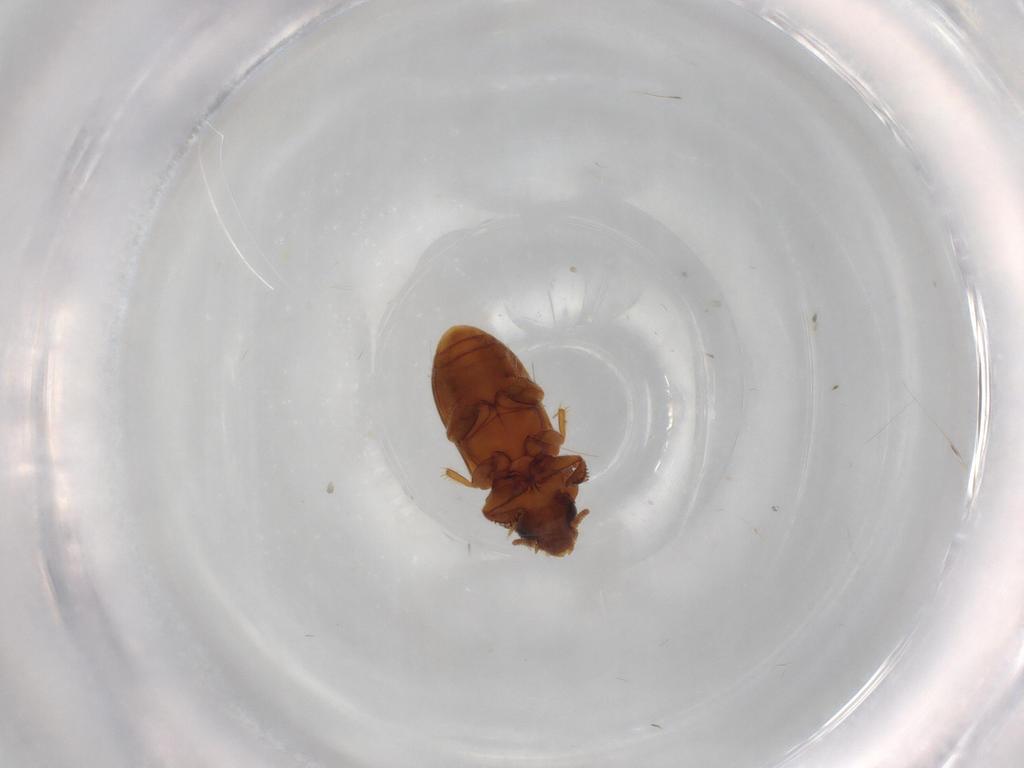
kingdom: Animalia
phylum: Arthropoda
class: Insecta
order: Coleoptera
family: Heteroceridae
